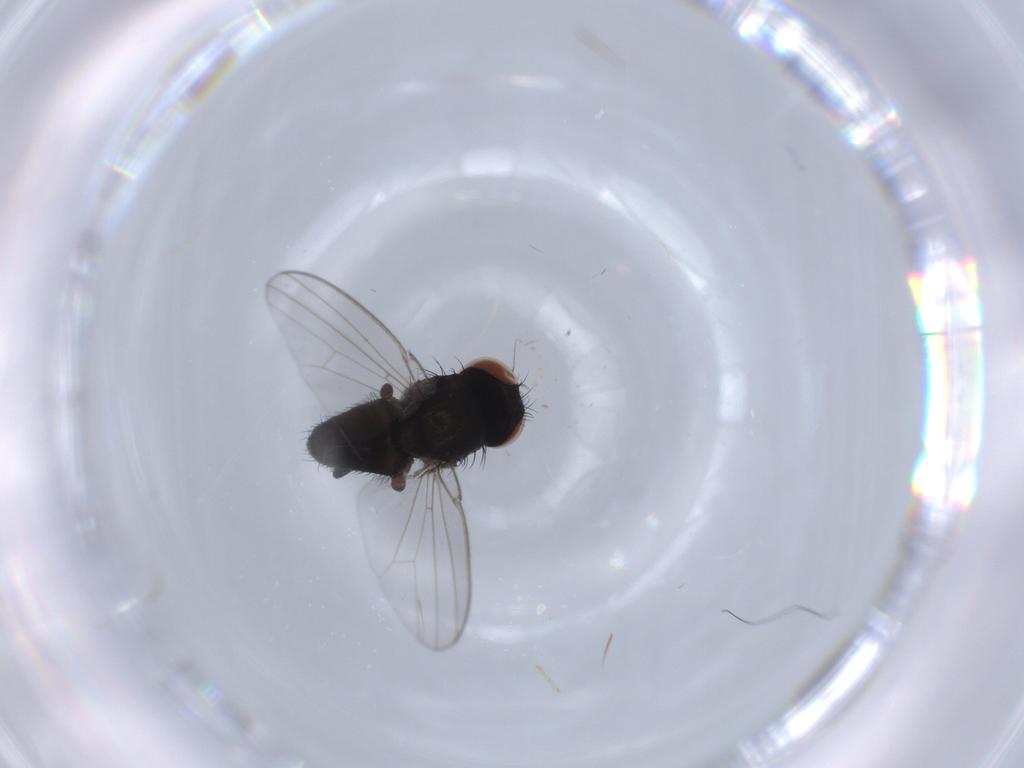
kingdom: Animalia
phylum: Arthropoda
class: Insecta
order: Diptera
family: Milichiidae
